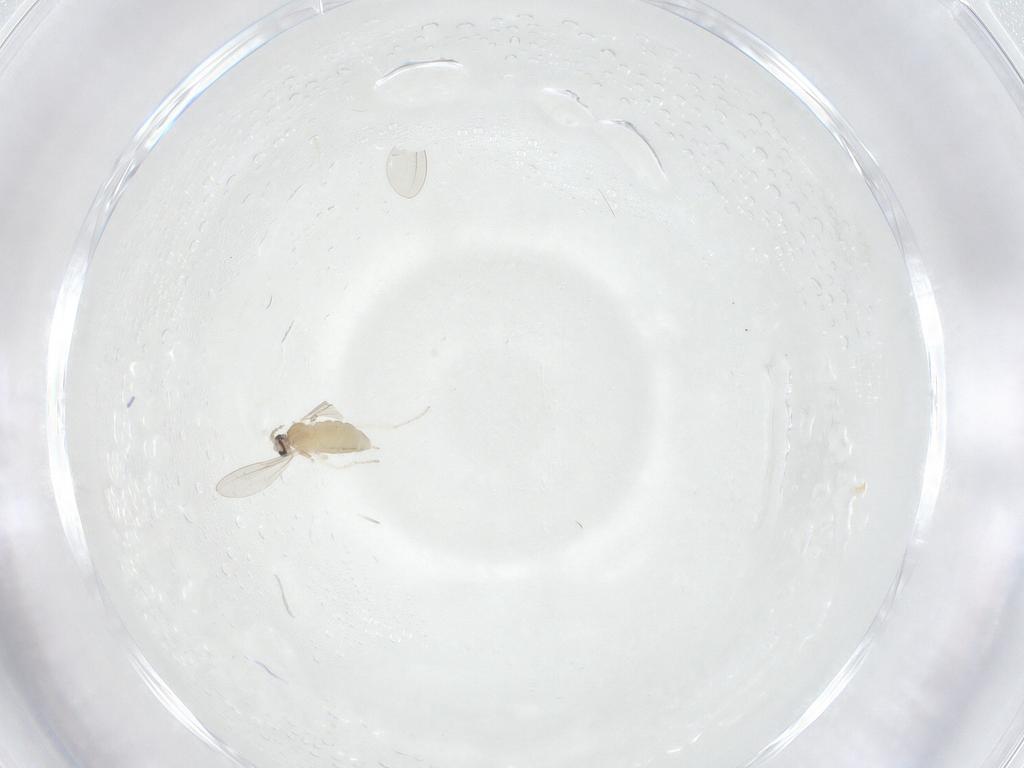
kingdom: Animalia
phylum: Arthropoda
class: Insecta
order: Diptera
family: Cecidomyiidae
